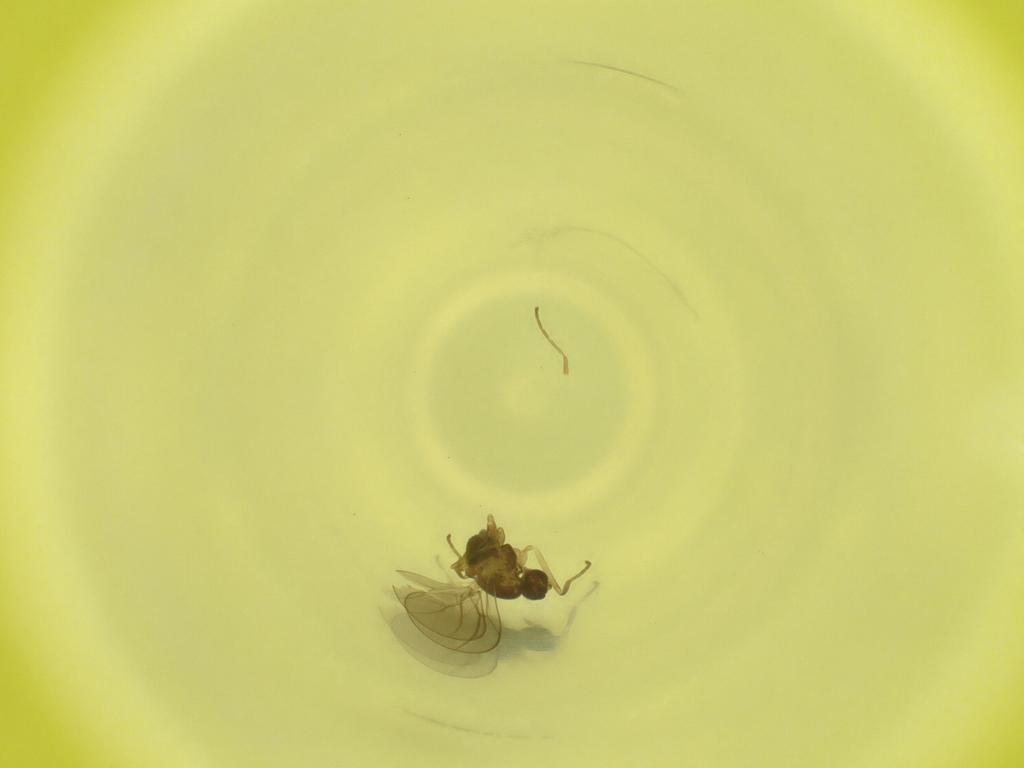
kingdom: Animalia
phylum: Arthropoda
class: Insecta
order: Diptera
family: Cecidomyiidae
